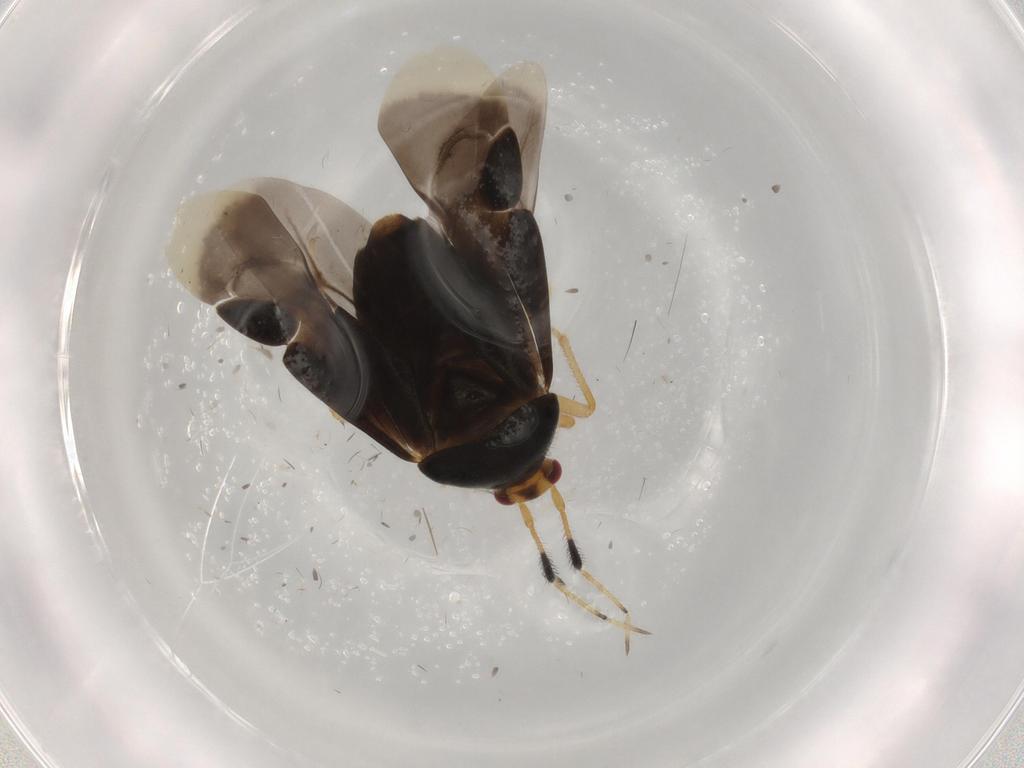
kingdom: Animalia
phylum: Arthropoda
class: Insecta
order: Hemiptera
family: Miridae
